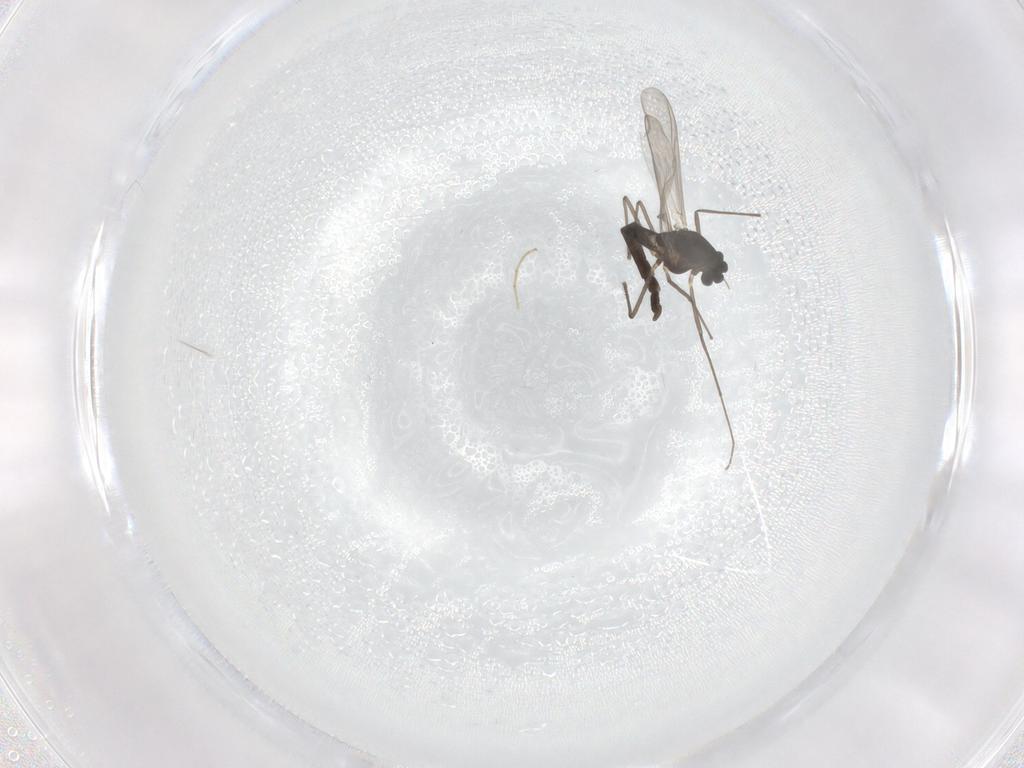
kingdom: Animalia
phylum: Arthropoda
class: Insecta
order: Diptera
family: Chironomidae
